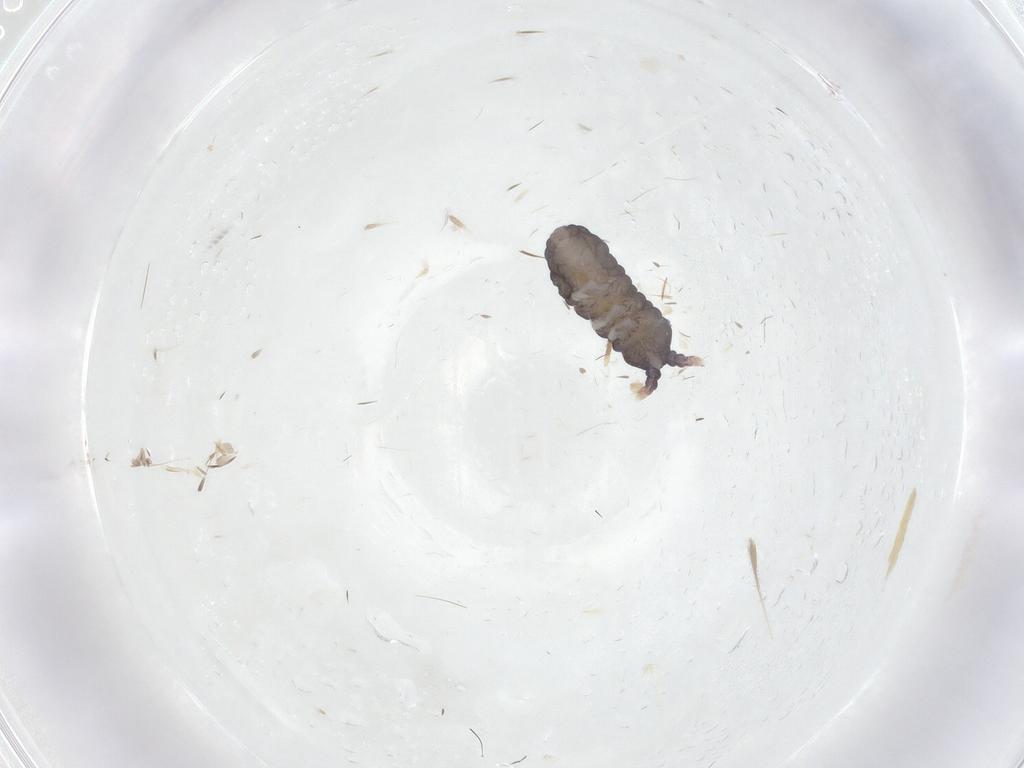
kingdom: Animalia
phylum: Arthropoda
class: Collembola
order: Poduromorpha
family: Neanuridae
